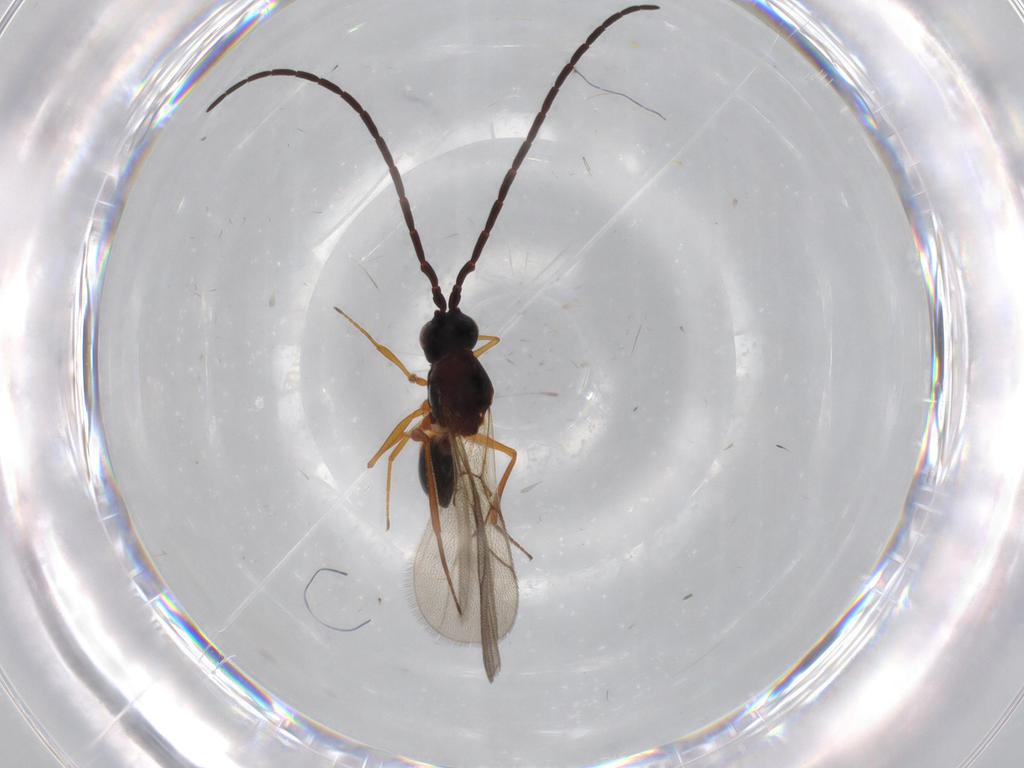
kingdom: Animalia
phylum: Arthropoda
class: Insecta
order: Hymenoptera
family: Figitidae
